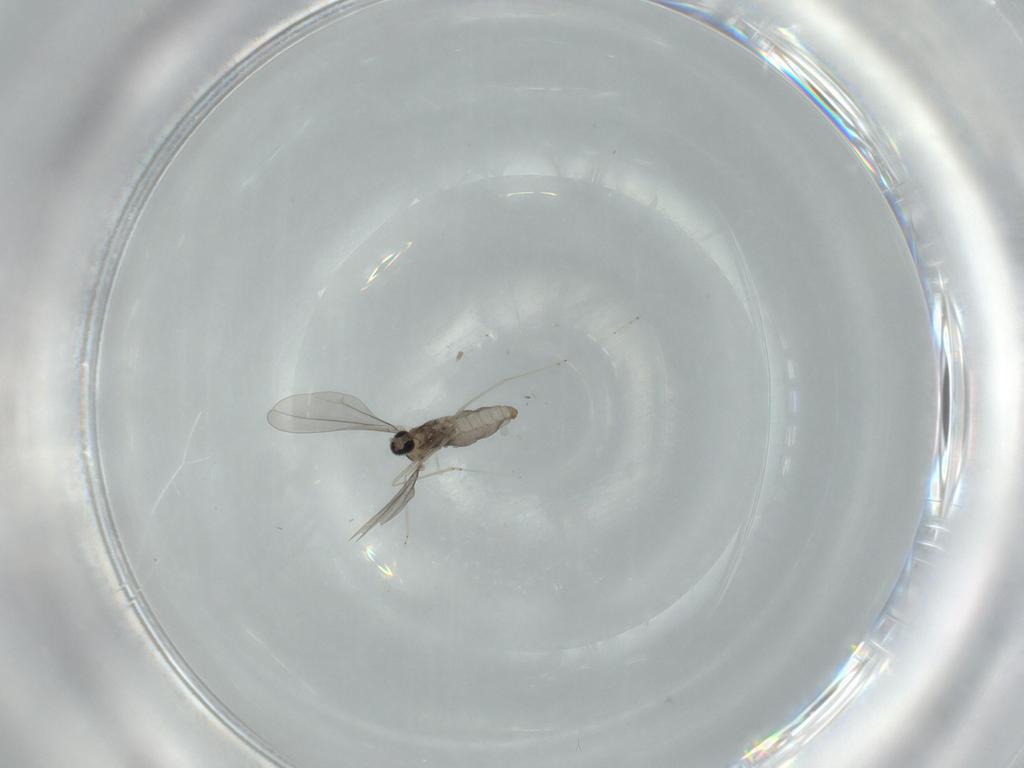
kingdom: Animalia
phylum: Arthropoda
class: Insecta
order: Diptera
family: Cecidomyiidae
